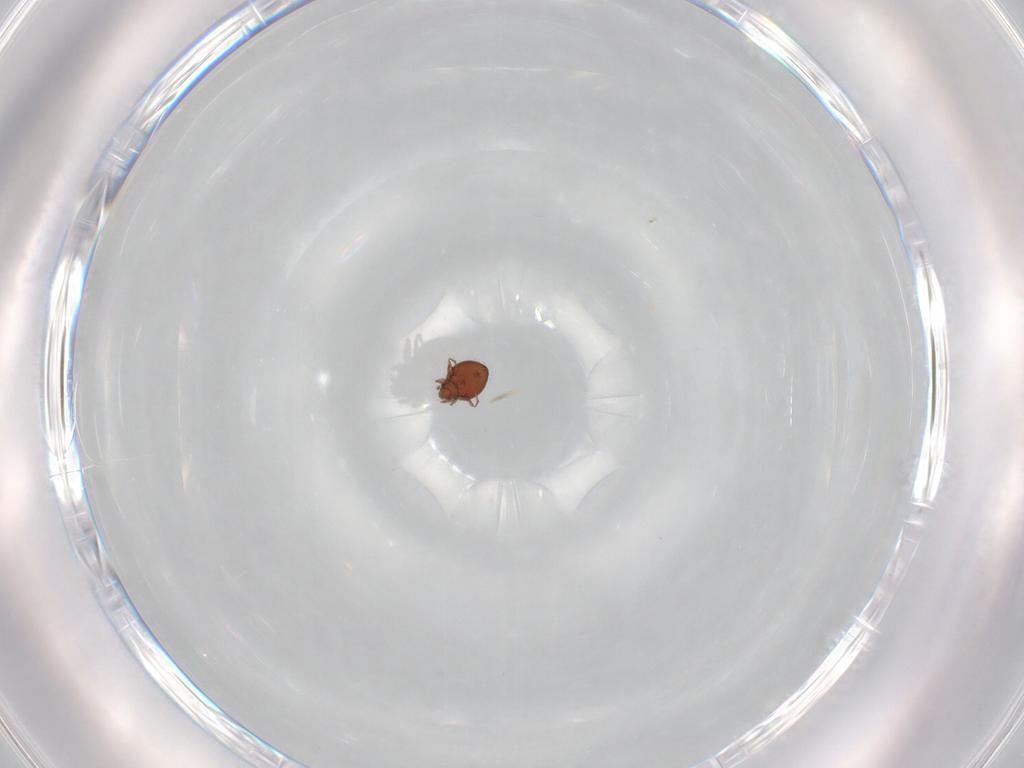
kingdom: Animalia
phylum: Arthropoda
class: Arachnida
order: Sarcoptiformes
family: Oribatulidae
